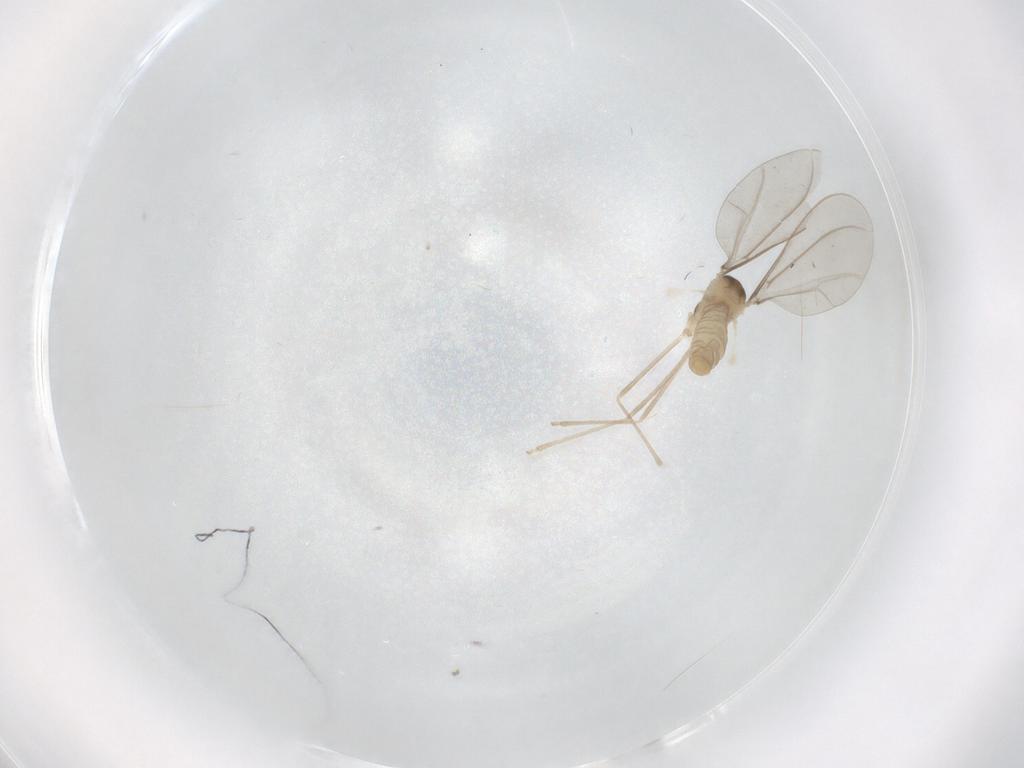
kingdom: Animalia
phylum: Arthropoda
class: Insecta
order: Diptera
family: Cecidomyiidae
